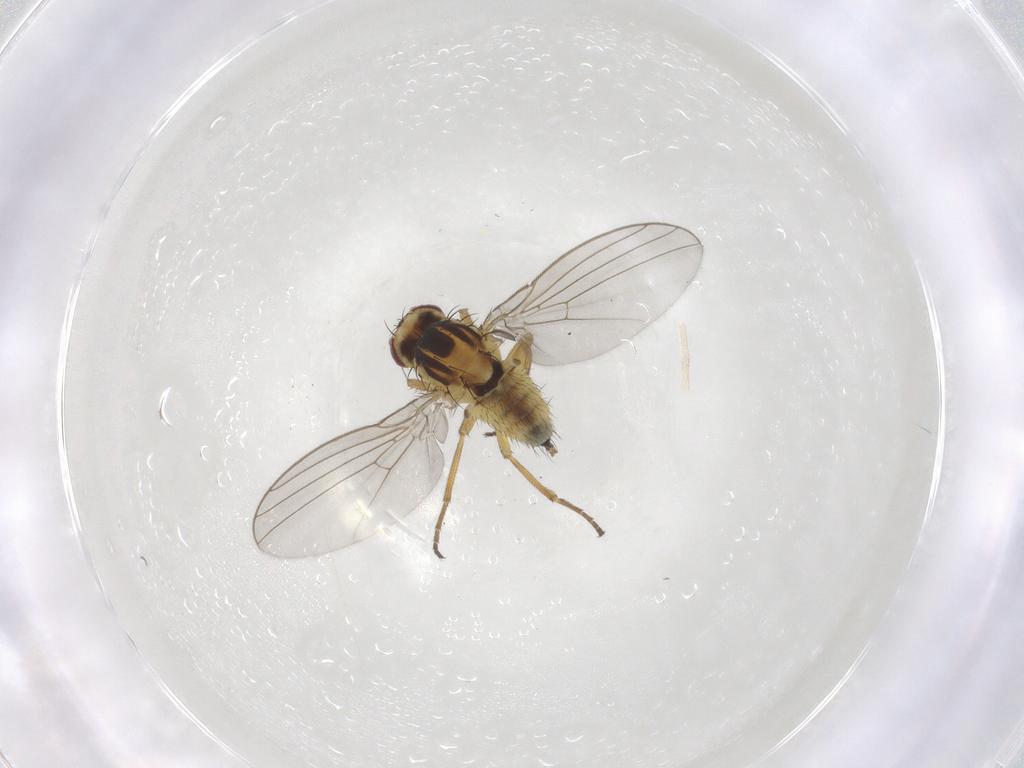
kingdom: Animalia
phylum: Arthropoda
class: Insecta
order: Diptera
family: Agromyzidae
